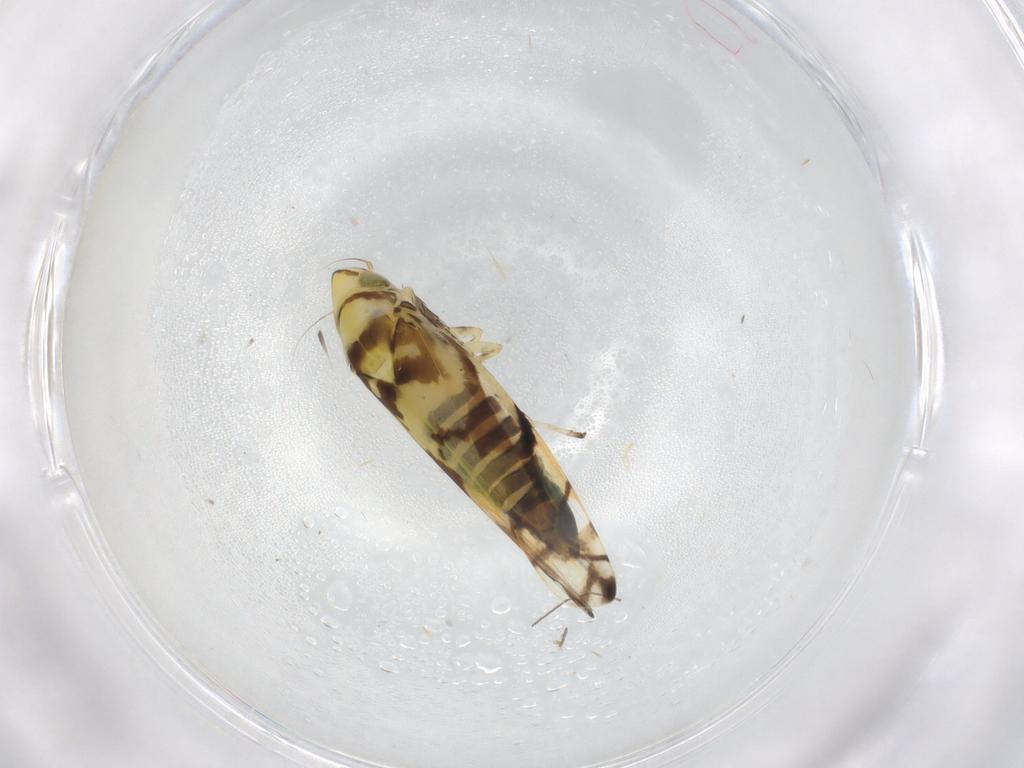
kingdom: Animalia
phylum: Arthropoda
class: Insecta
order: Hemiptera
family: Cicadellidae
